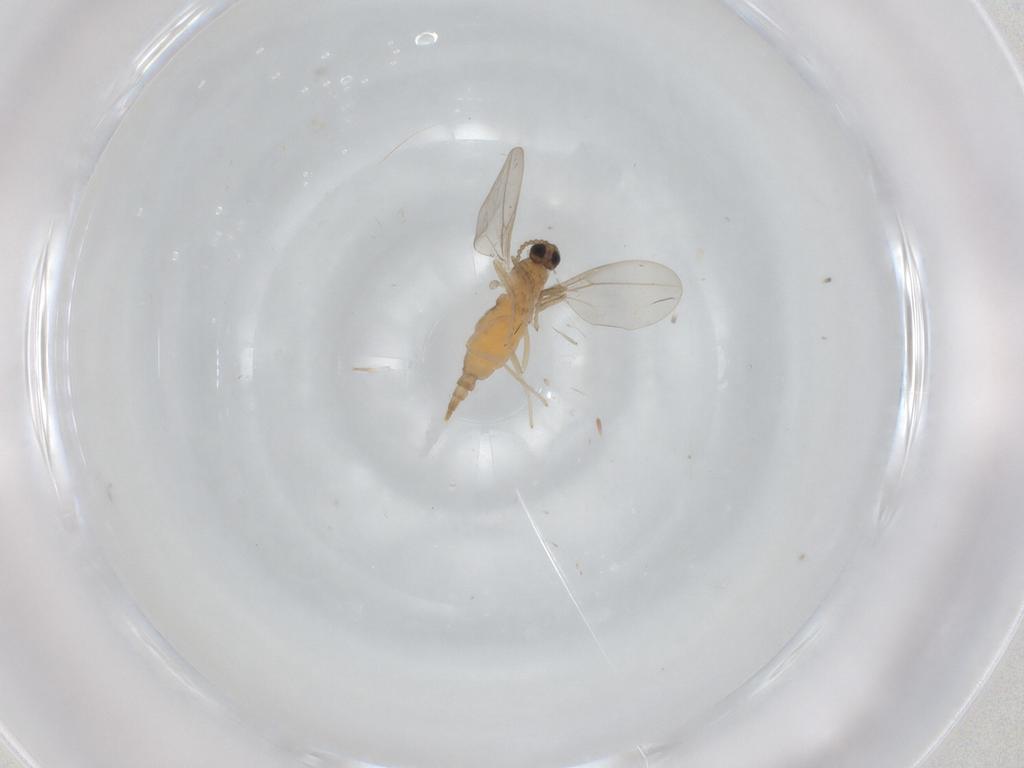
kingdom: Animalia
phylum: Arthropoda
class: Insecta
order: Diptera
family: Cecidomyiidae
